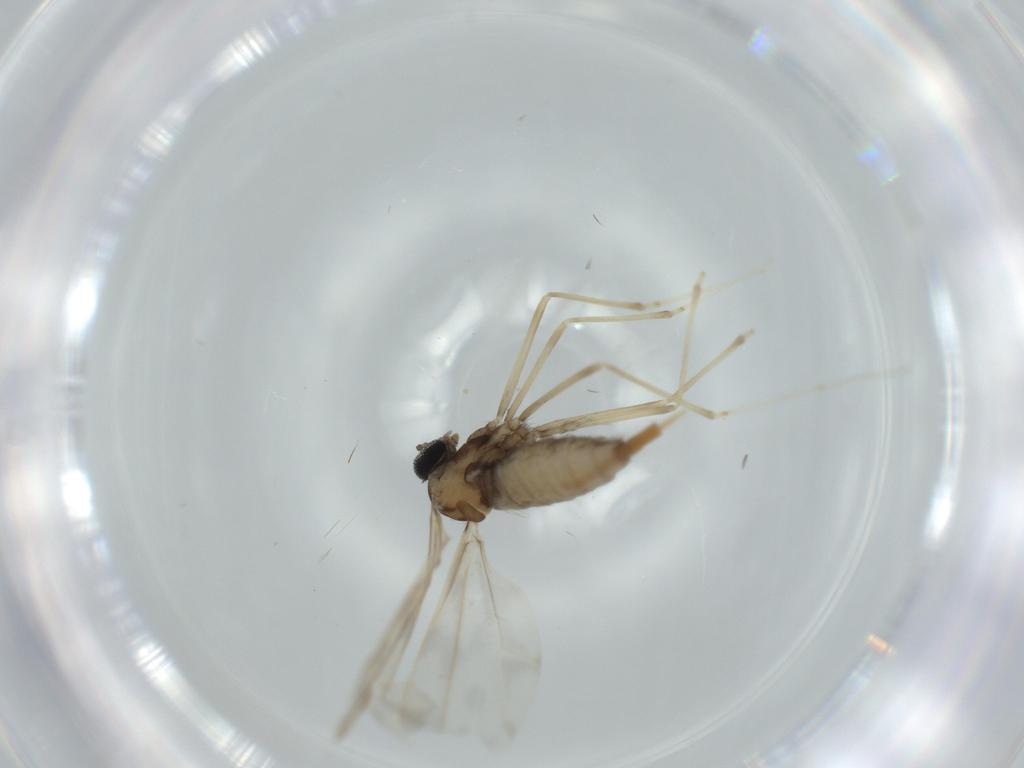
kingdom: Animalia
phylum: Arthropoda
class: Insecta
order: Diptera
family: Cecidomyiidae
